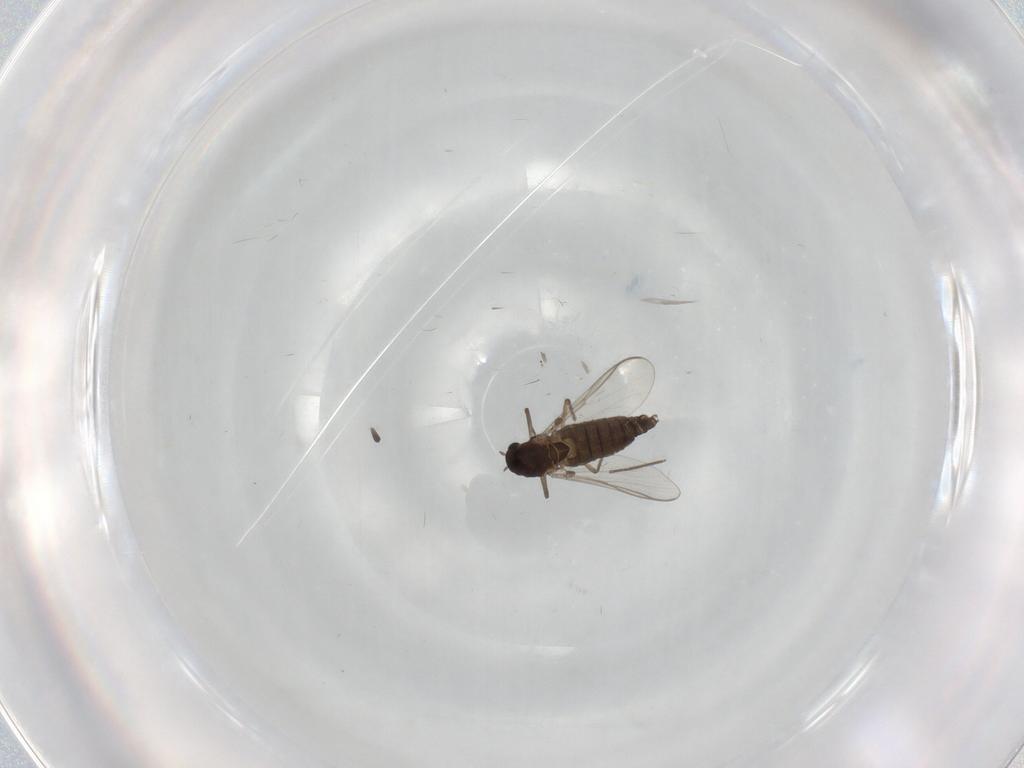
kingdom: Animalia
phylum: Arthropoda
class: Insecta
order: Diptera
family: Chironomidae
